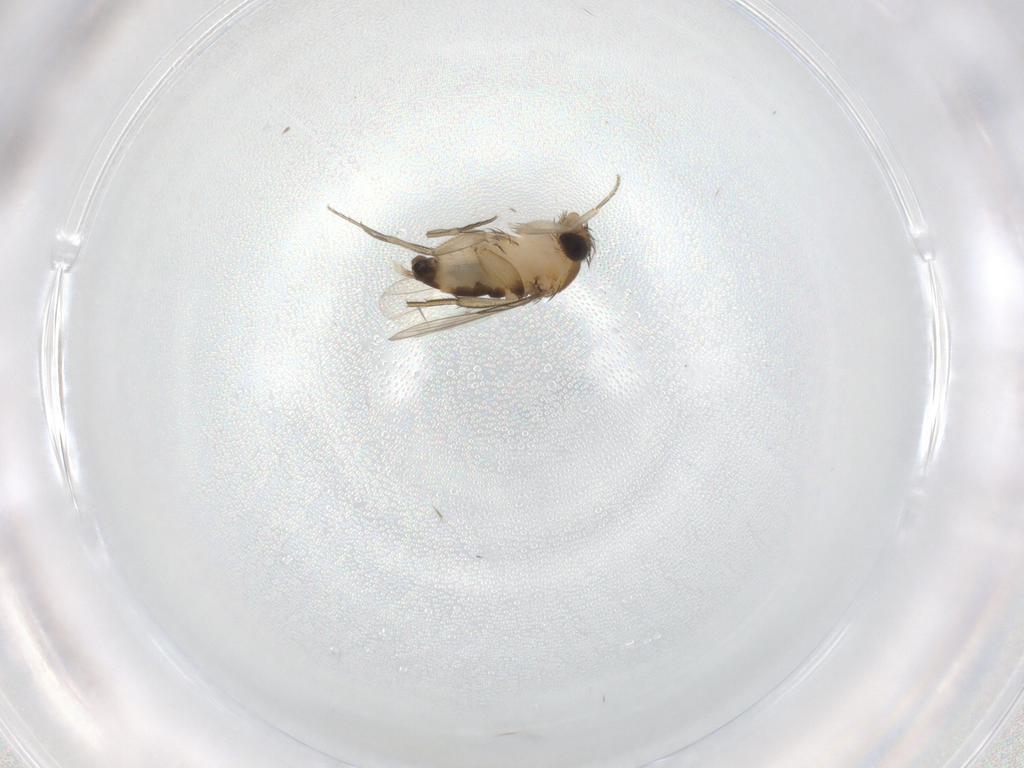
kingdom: Animalia
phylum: Arthropoda
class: Insecta
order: Diptera
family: Phoridae
